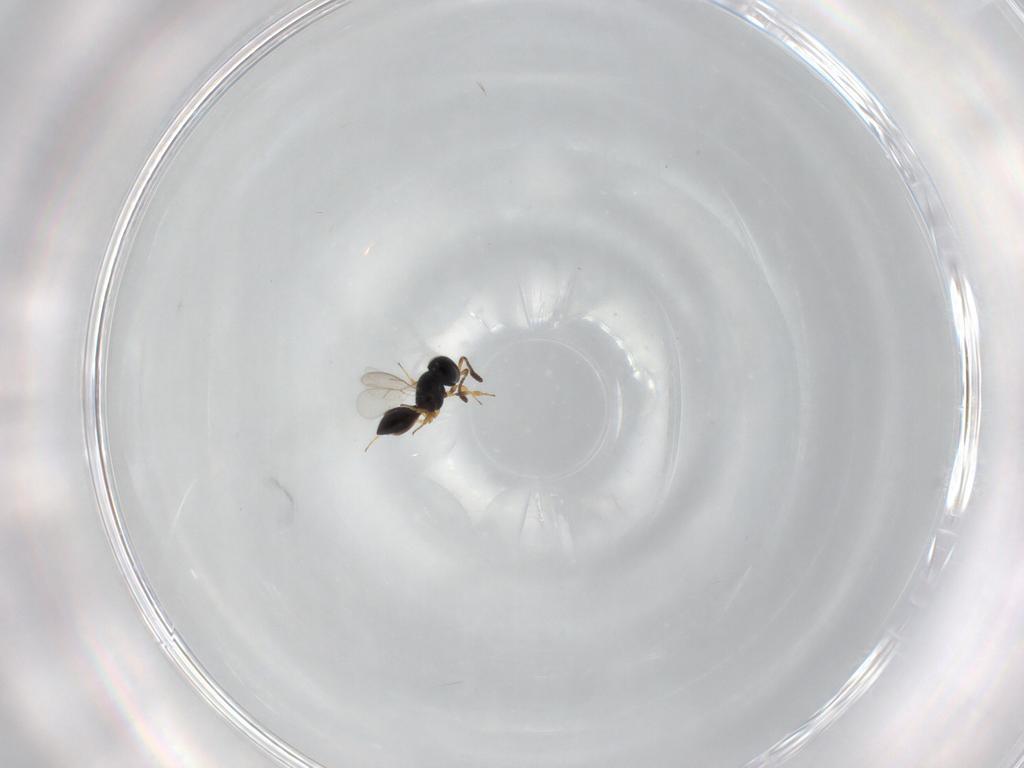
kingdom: Animalia
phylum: Arthropoda
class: Insecta
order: Hymenoptera
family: Scelionidae
